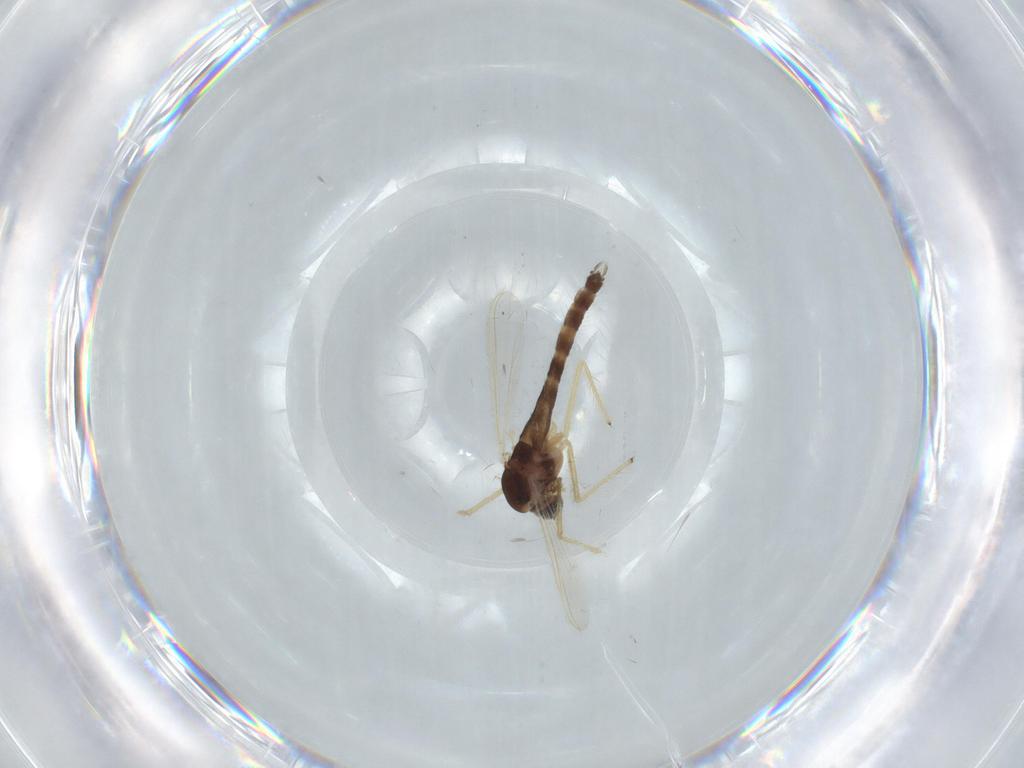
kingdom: Animalia
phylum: Arthropoda
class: Insecta
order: Diptera
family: Chironomidae
